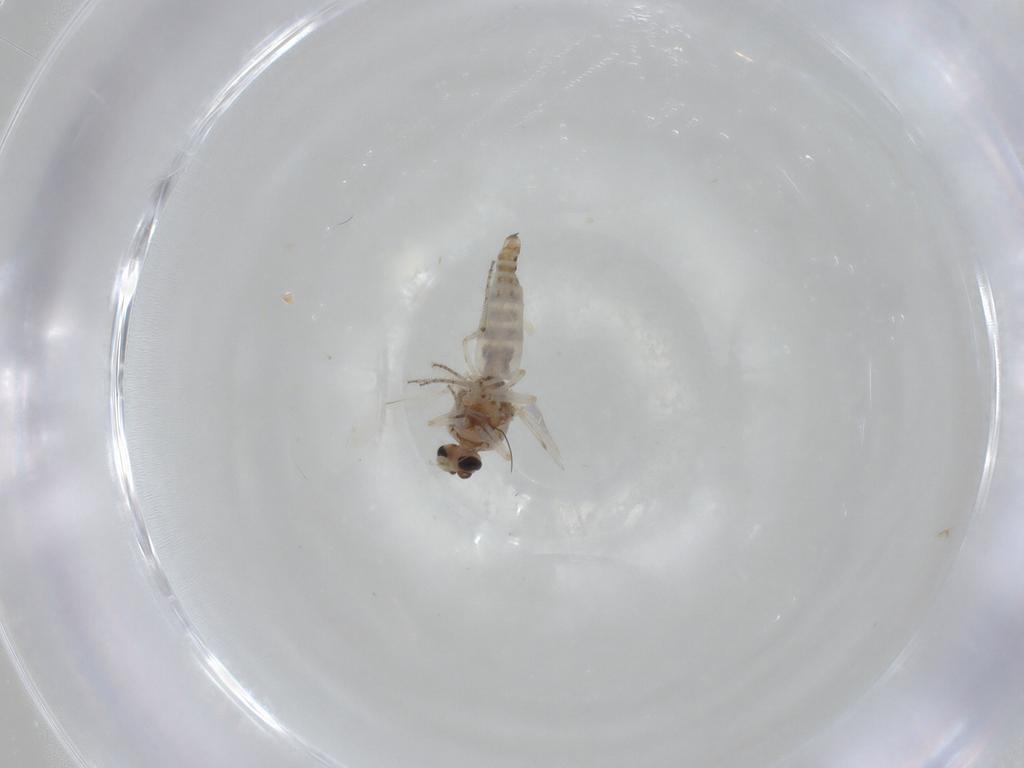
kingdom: Animalia
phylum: Arthropoda
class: Insecta
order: Diptera
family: Ceratopogonidae
